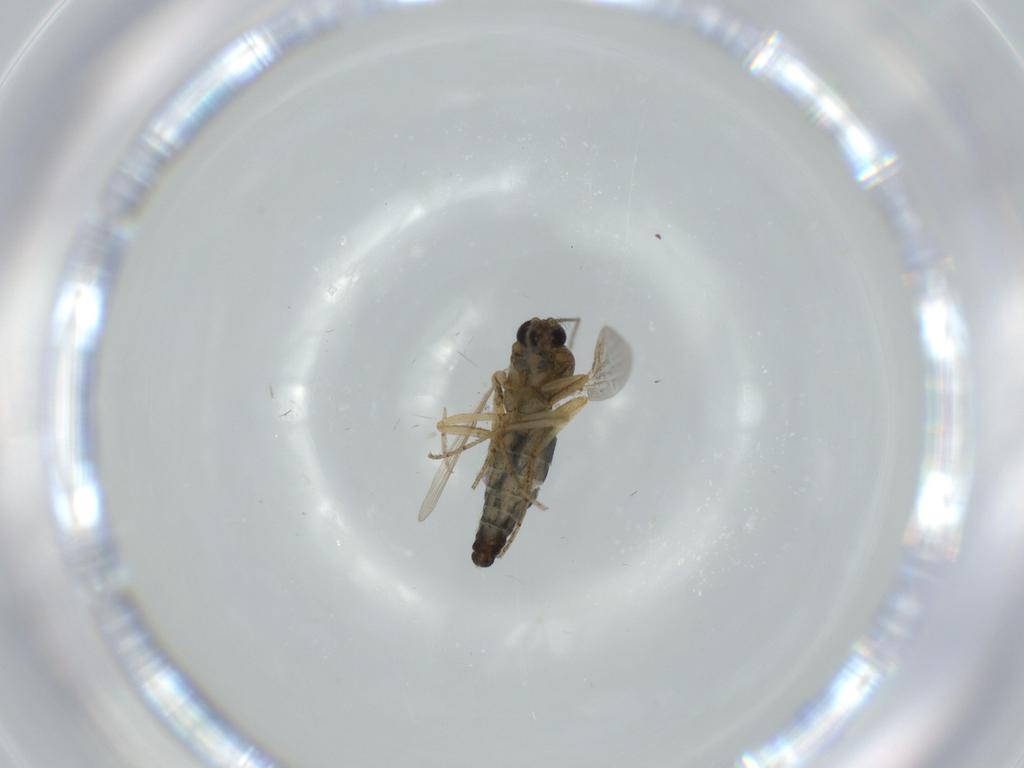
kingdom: Animalia
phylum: Arthropoda
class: Insecta
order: Diptera
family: Ceratopogonidae
